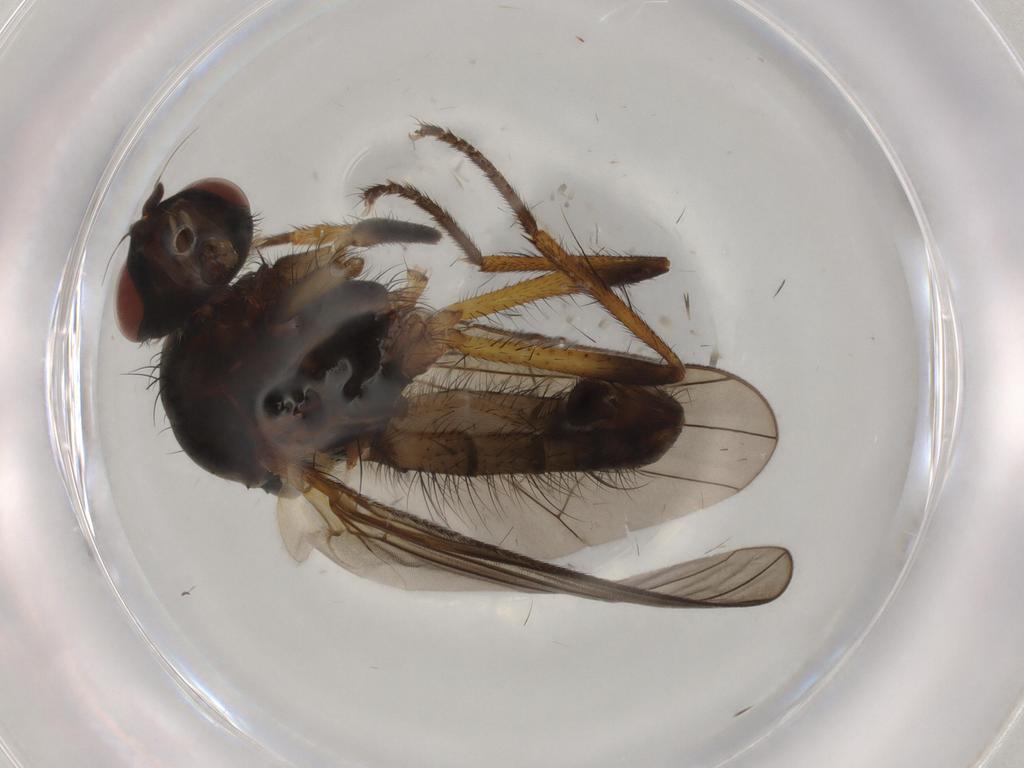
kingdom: Animalia
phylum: Arthropoda
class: Insecta
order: Diptera
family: Anthomyiidae
